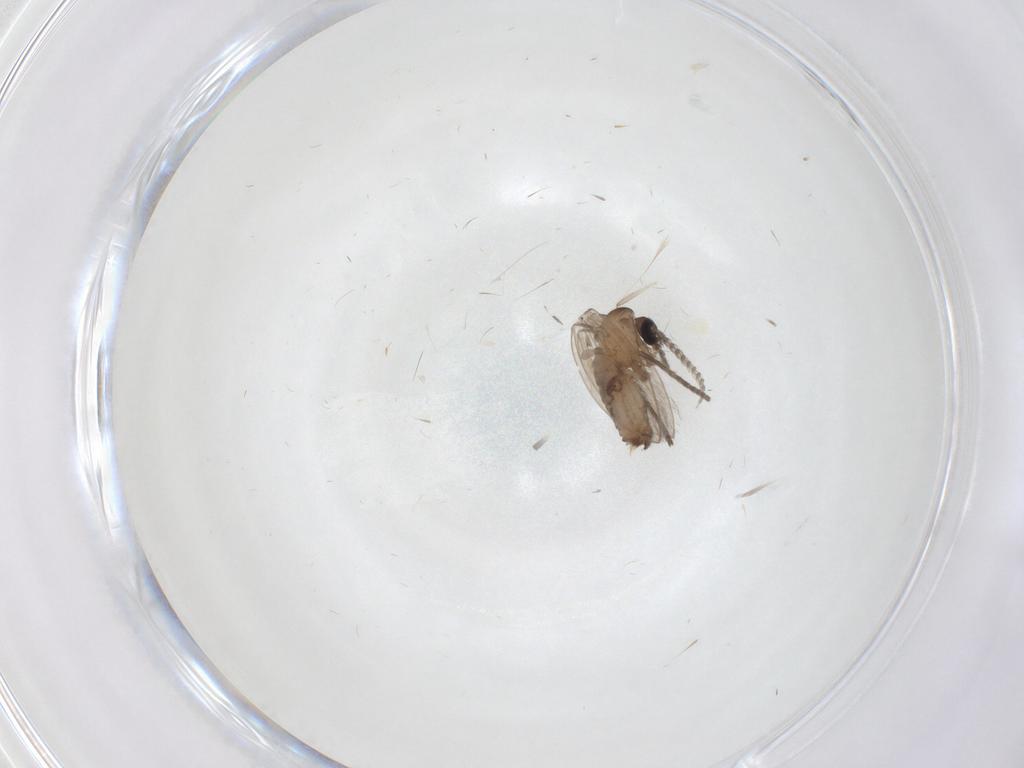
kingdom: Animalia
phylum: Arthropoda
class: Insecta
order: Diptera
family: Psychodidae
